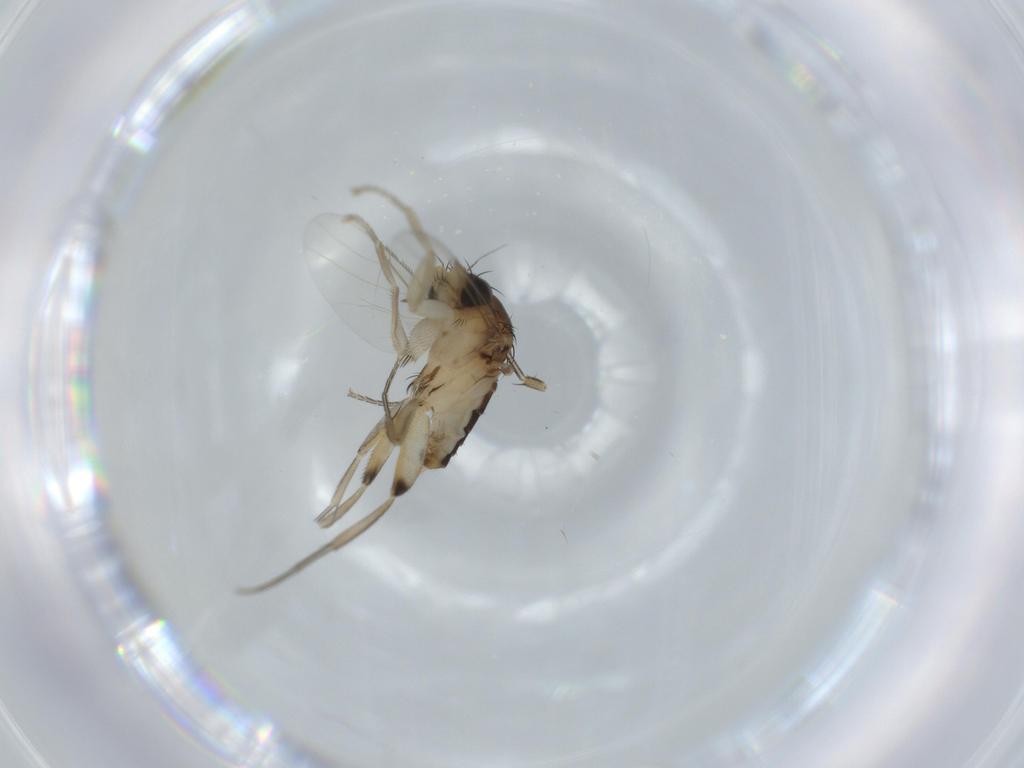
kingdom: Animalia
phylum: Arthropoda
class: Insecta
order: Diptera
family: Phoridae
